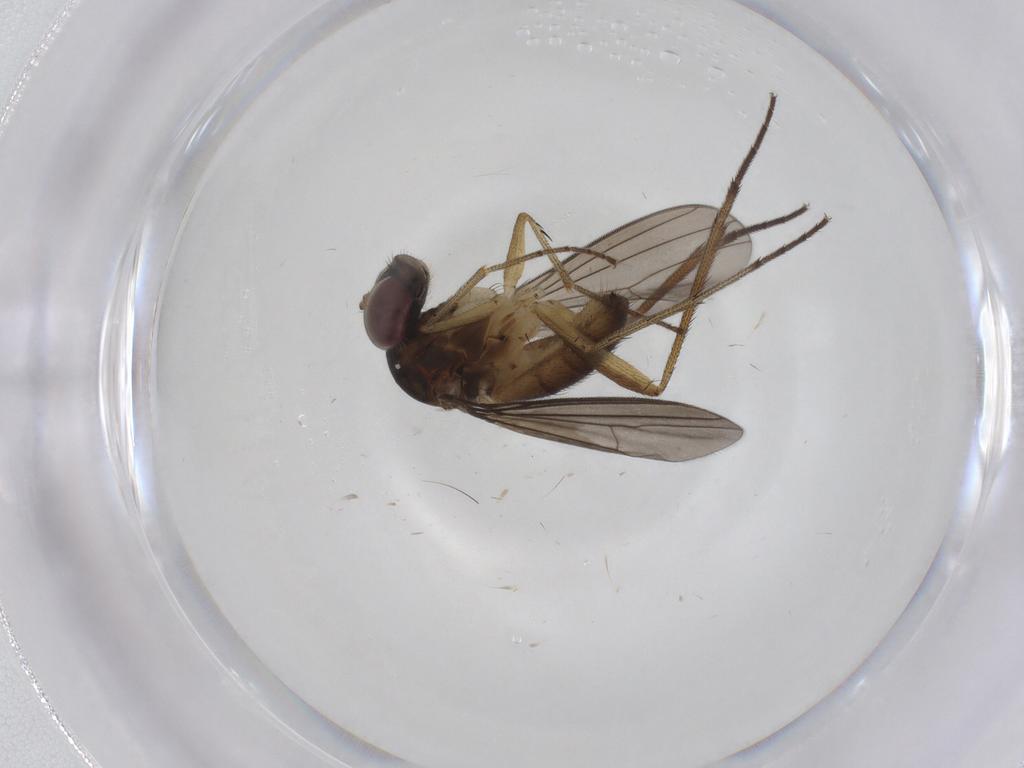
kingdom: Animalia
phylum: Arthropoda
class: Insecta
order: Diptera
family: Dolichopodidae
